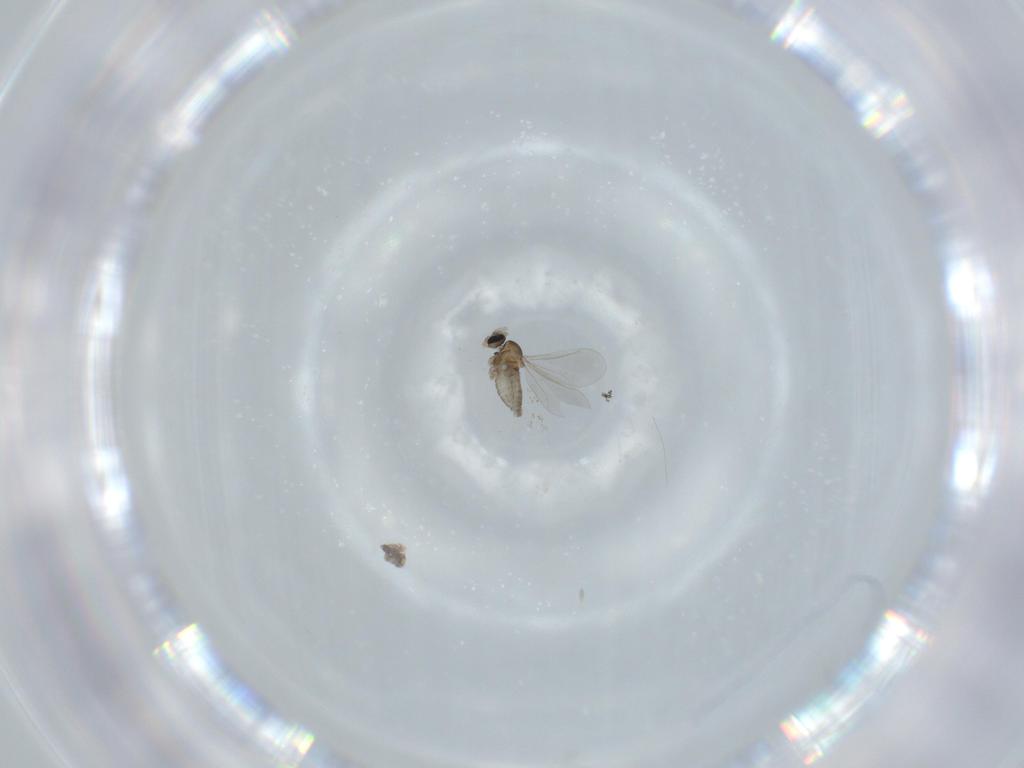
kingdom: Animalia
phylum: Arthropoda
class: Insecta
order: Diptera
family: Cecidomyiidae
